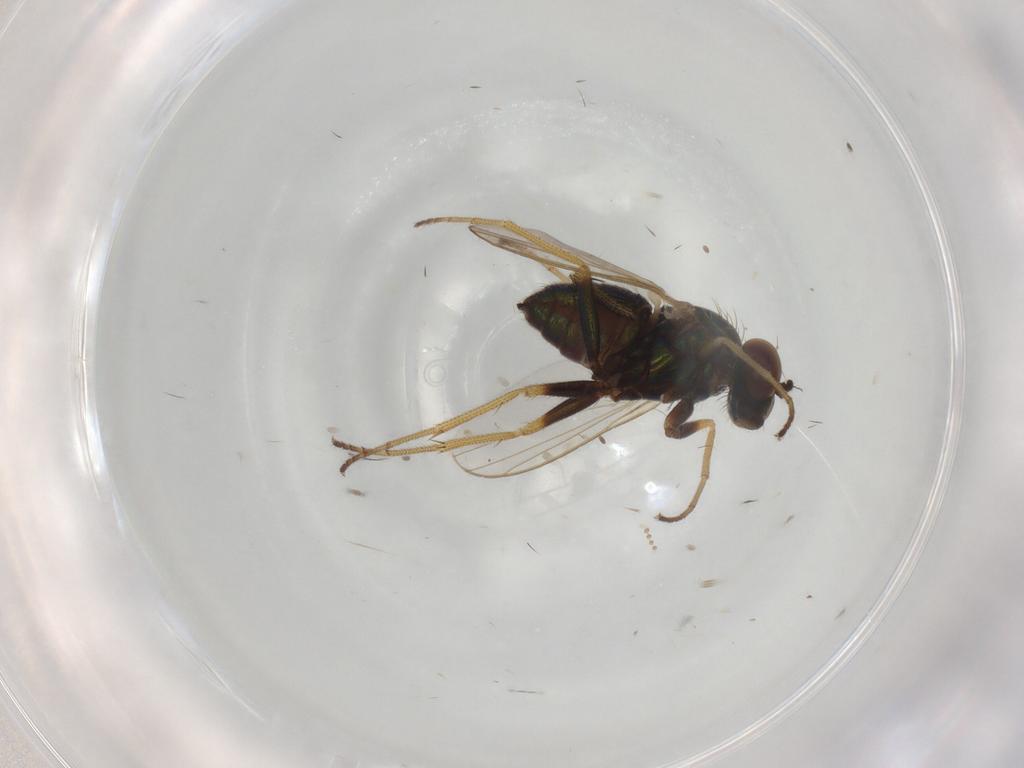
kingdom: Animalia
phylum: Arthropoda
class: Insecta
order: Diptera
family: Dolichopodidae
